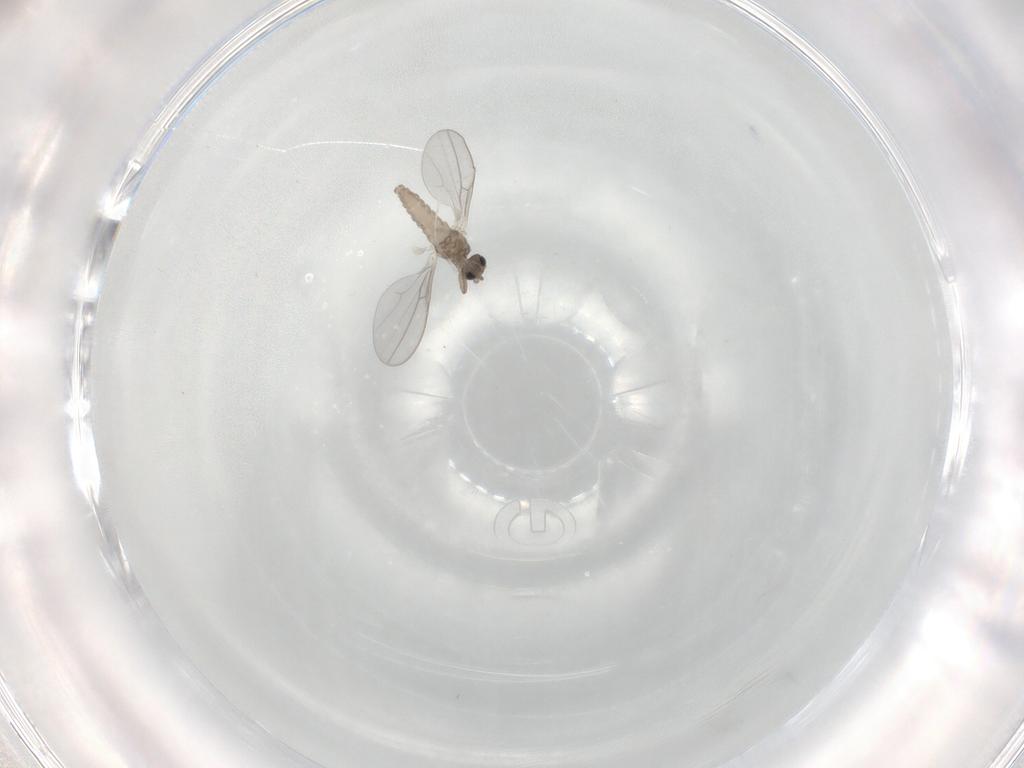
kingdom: Animalia
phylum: Arthropoda
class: Insecta
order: Diptera
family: Cecidomyiidae
